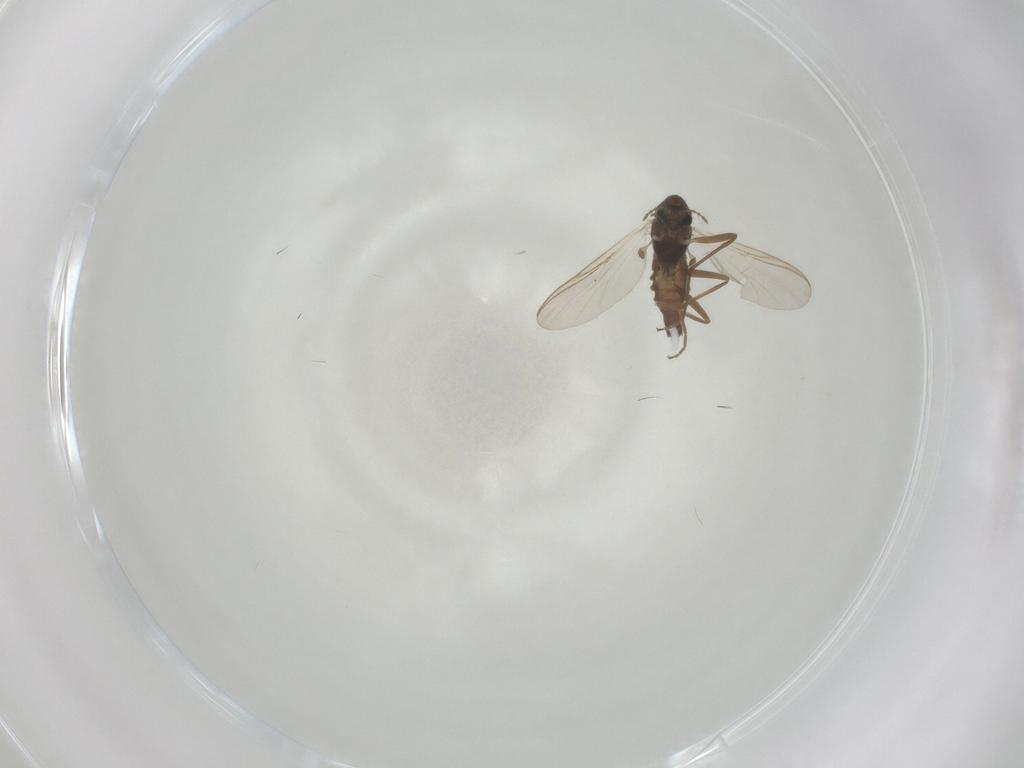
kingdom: Animalia
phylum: Arthropoda
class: Insecta
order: Diptera
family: Chironomidae
